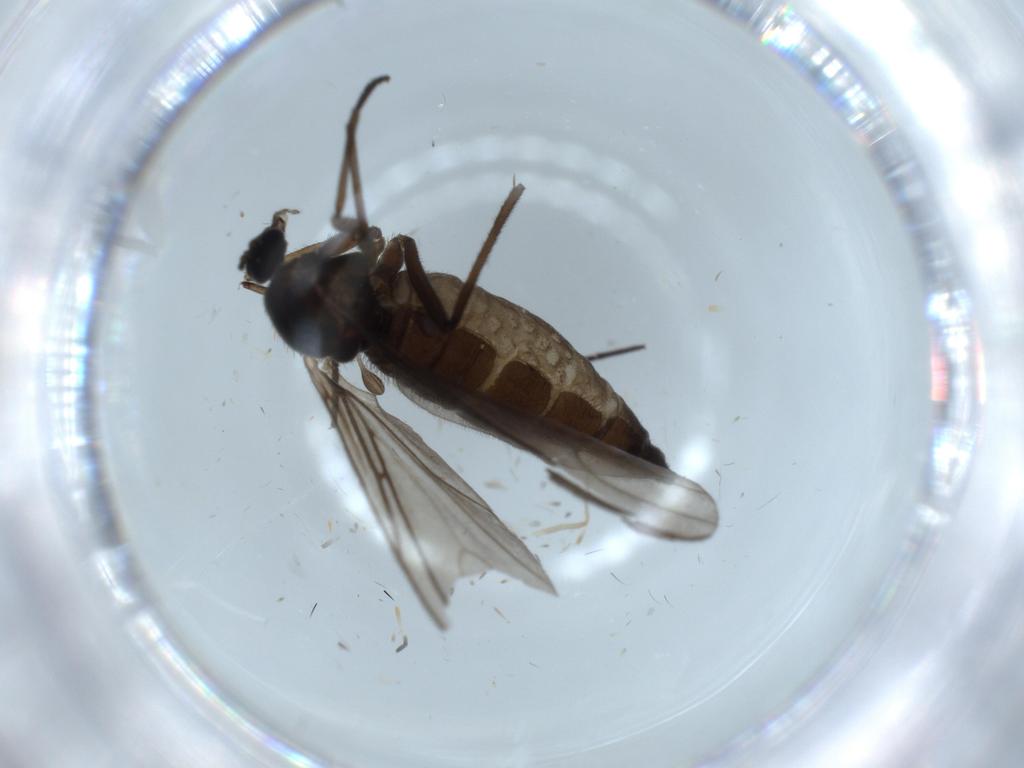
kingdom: Animalia
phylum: Arthropoda
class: Insecta
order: Diptera
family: Sciaridae
